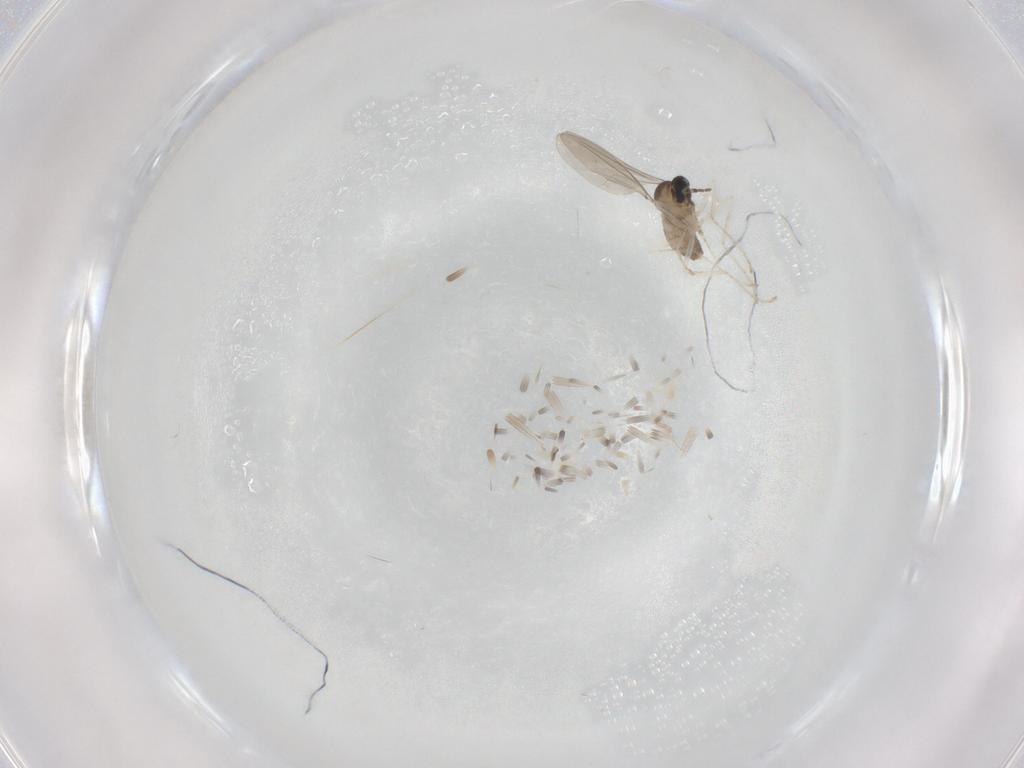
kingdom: Animalia
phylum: Arthropoda
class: Insecta
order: Diptera
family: Cecidomyiidae
